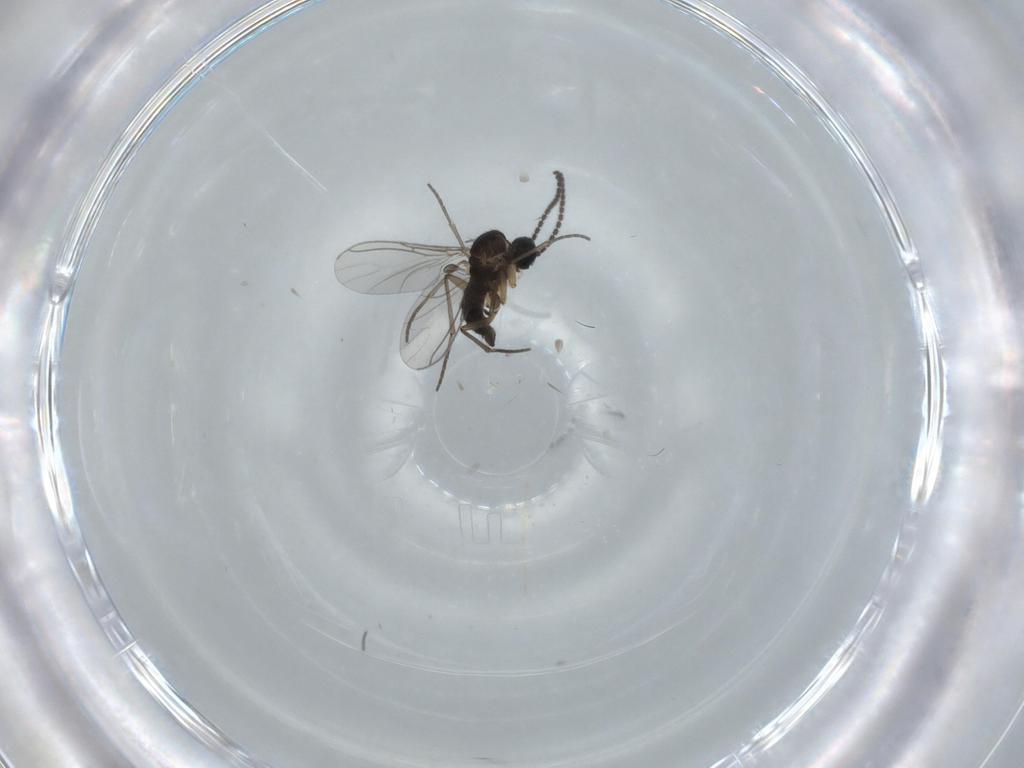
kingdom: Animalia
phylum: Arthropoda
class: Insecta
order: Diptera
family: Sciaridae
